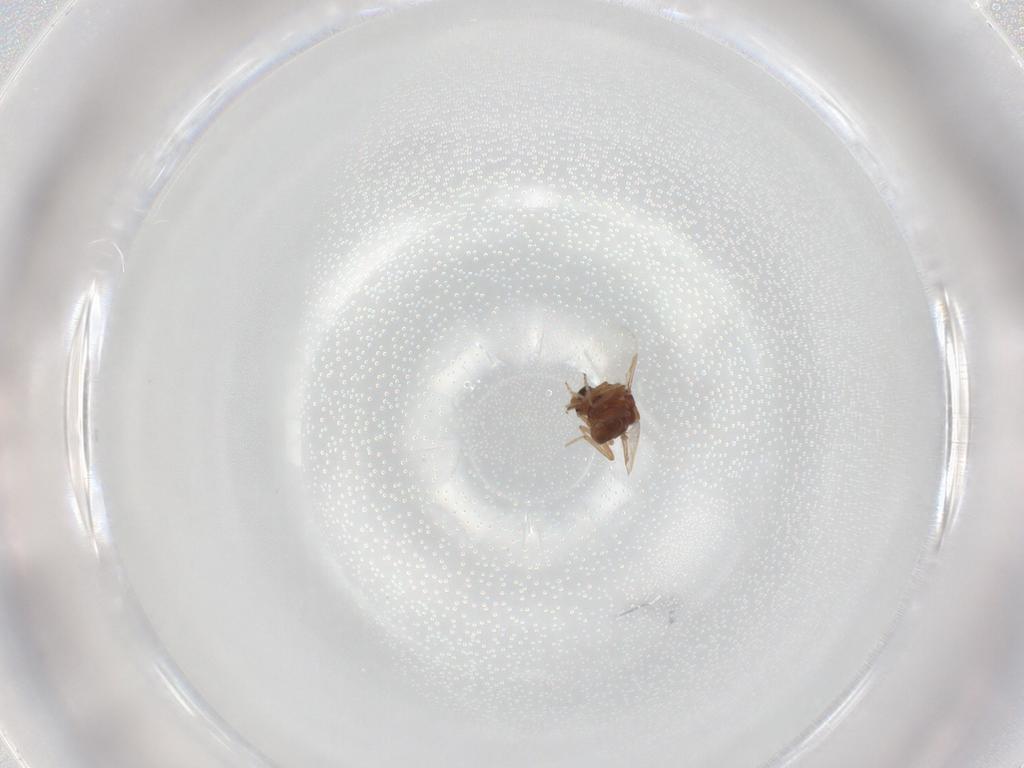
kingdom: Animalia
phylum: Arthropoda
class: Insecta
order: Diptera
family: Ceratopogonidae
